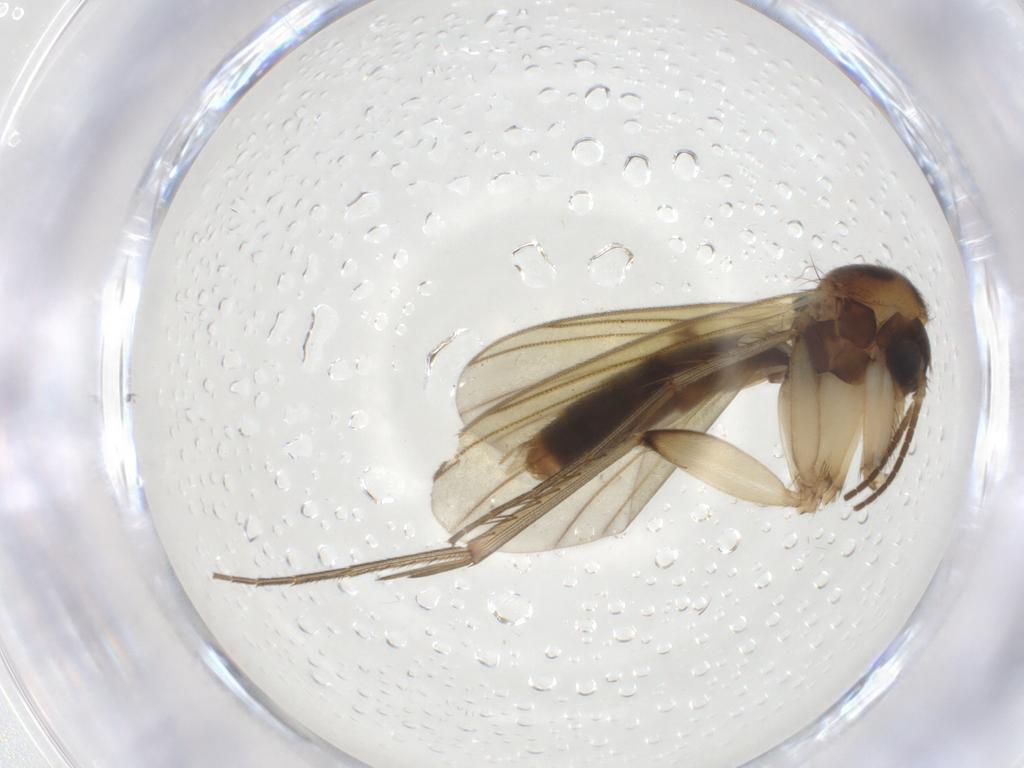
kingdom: Animalia
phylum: Arthropoda
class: Insecta
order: Diptera
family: Mycetophilidae
